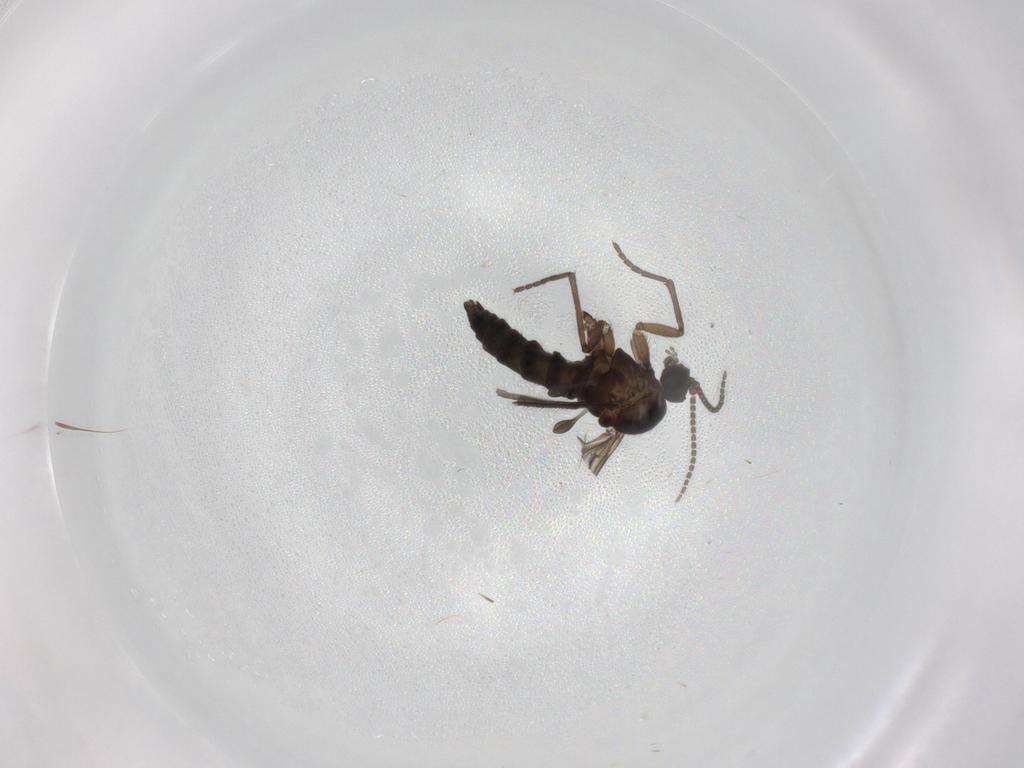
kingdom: Animalia
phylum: Arthropoda
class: Insecta
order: Diptera
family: Sciaridae
